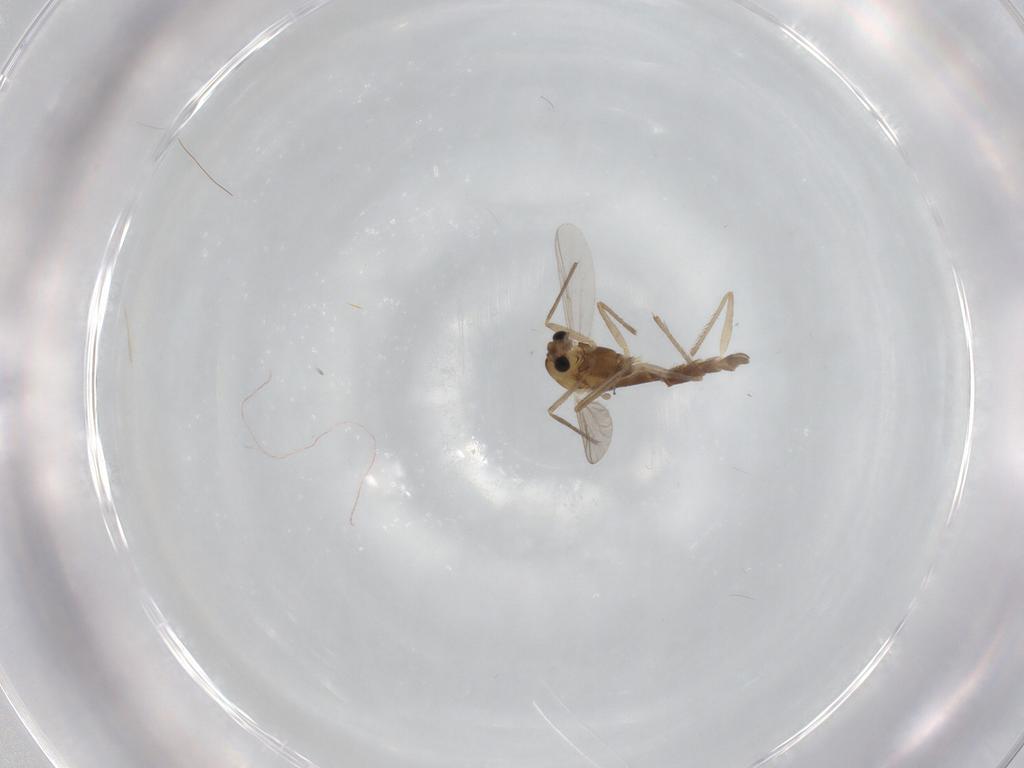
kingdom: Animalia
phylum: Arthropoda
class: Insecta
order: Diptera
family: Chironomidae
